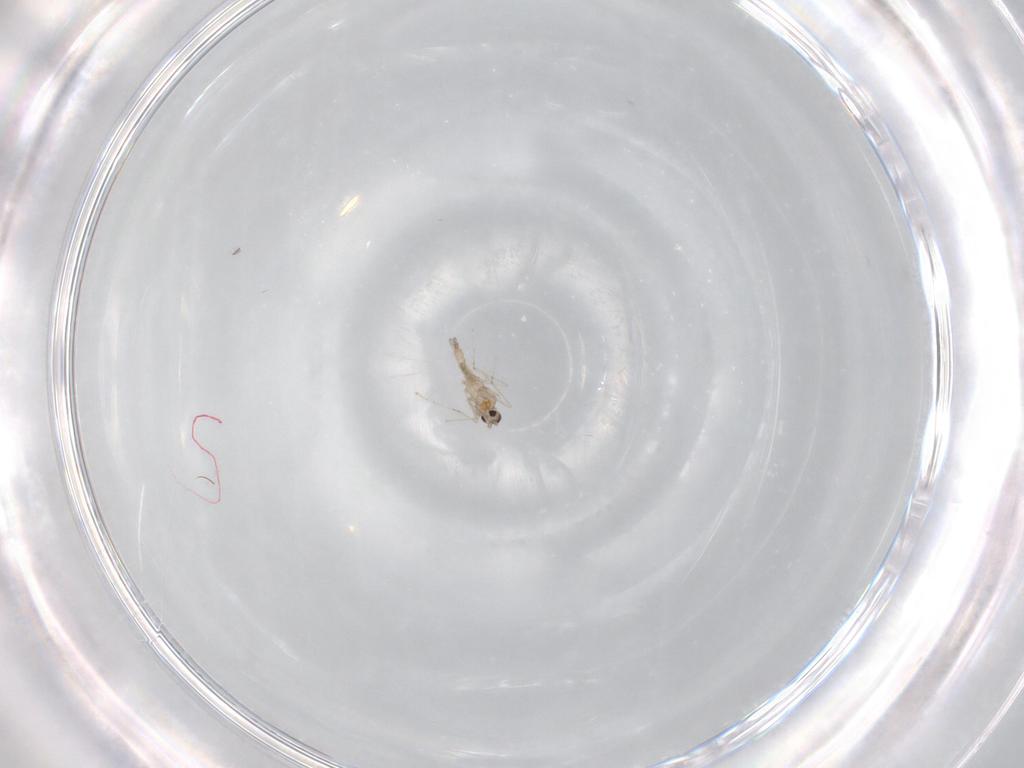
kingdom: Animalia
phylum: Arthropoda
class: Insecta
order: Diptera
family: Cecidomyiidae
